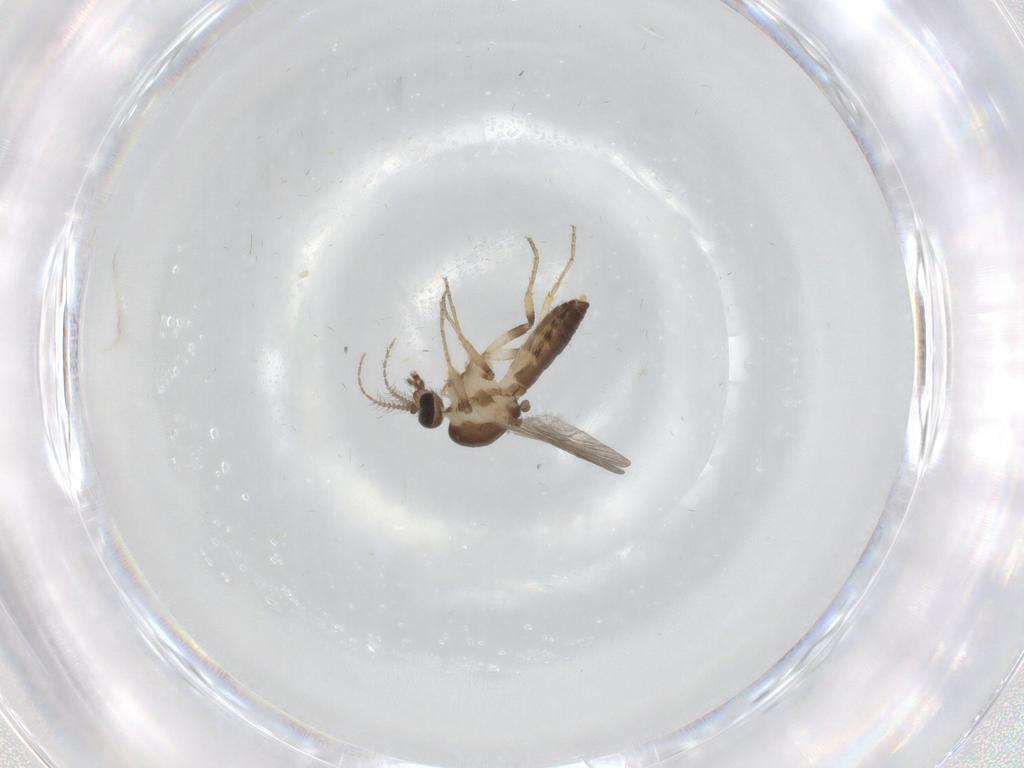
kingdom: Animalia
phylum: Arthropoda
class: Insecta
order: Diptera
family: Ceratopogonidae
